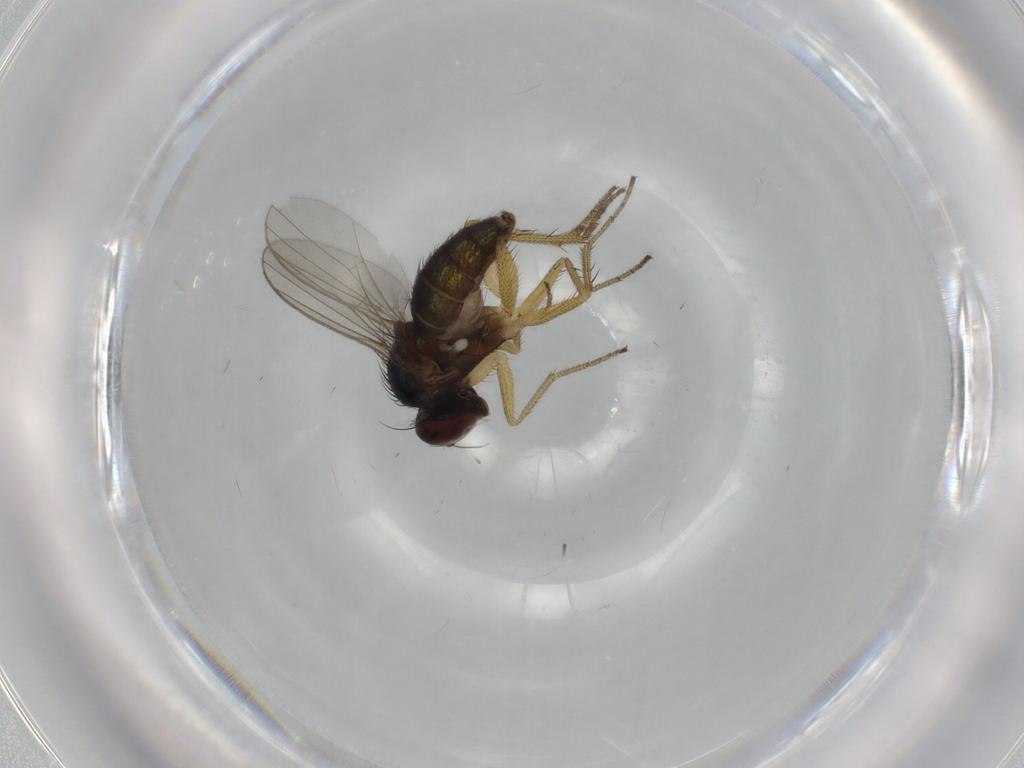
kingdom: Animalia
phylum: Arthropoda
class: Insecta
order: Diptera
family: Dolichopodidae
